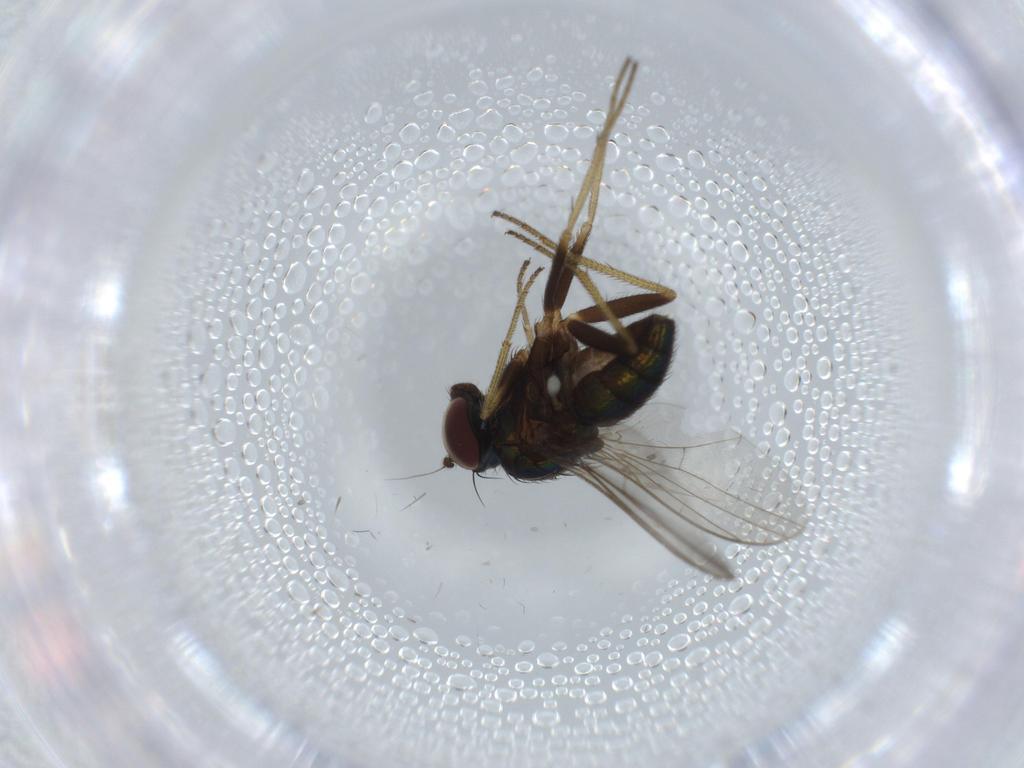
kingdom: Animalia
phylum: Arthropoda
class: Insecta
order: Diptera
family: Dolichopodidae
